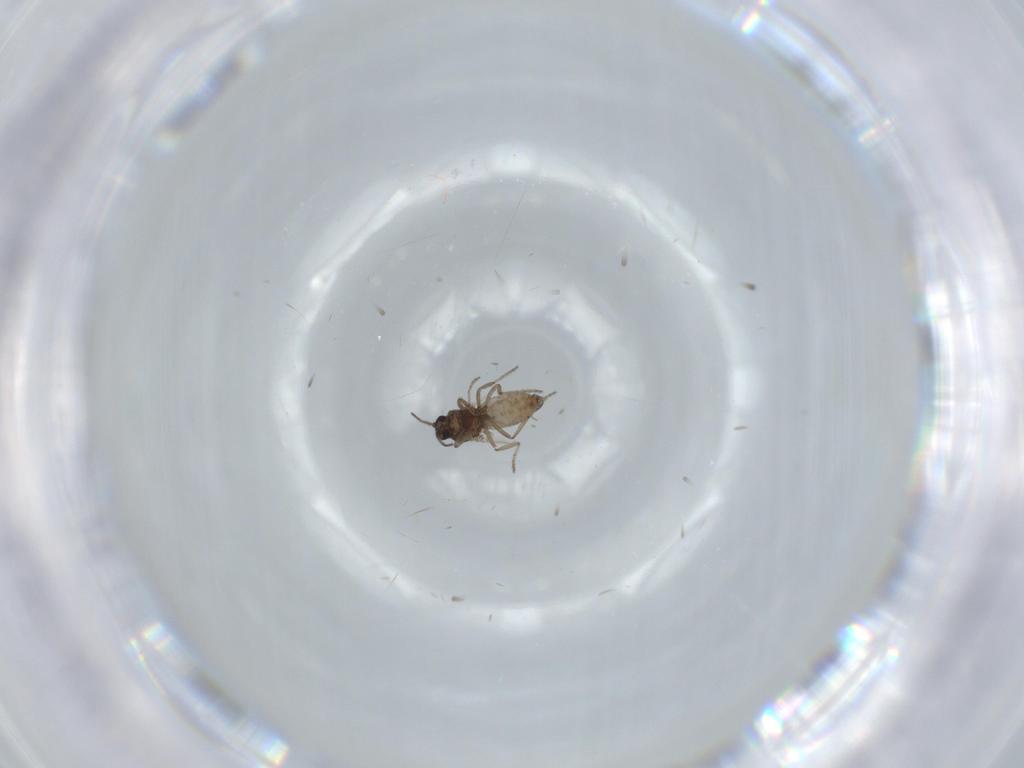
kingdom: Animalia
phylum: Arthropoda
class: Insecta
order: Diptera
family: Ceratopogonidae
